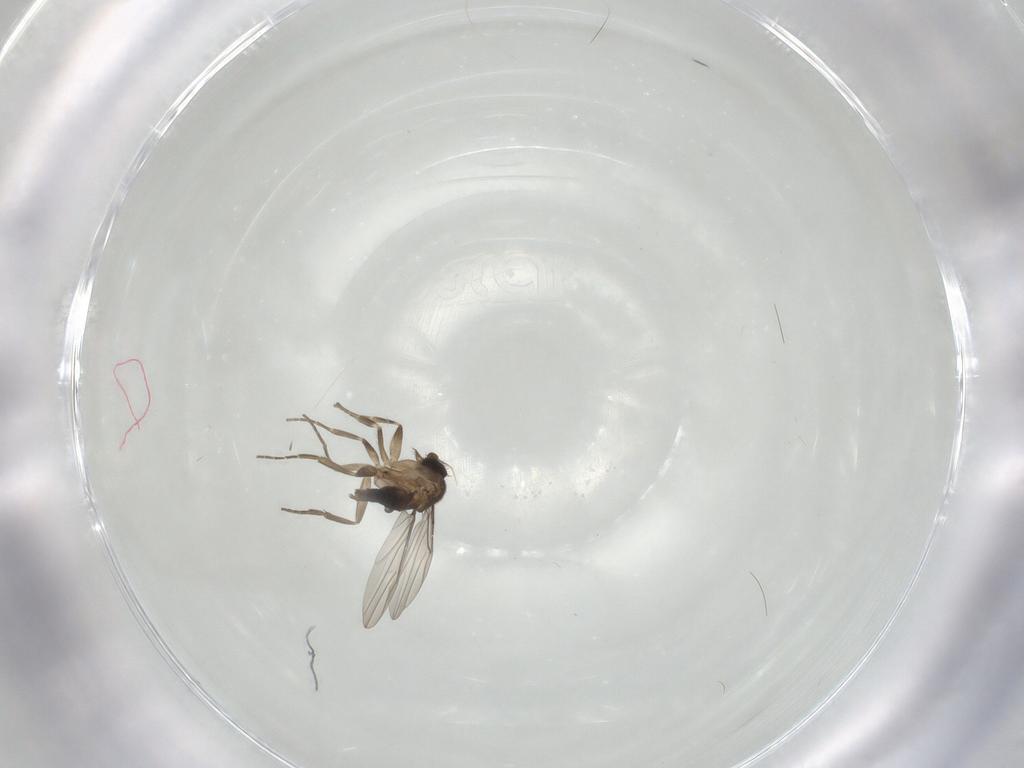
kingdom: Animalia
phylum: Arthropoda
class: Insecta
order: Diptera
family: Phoridae
